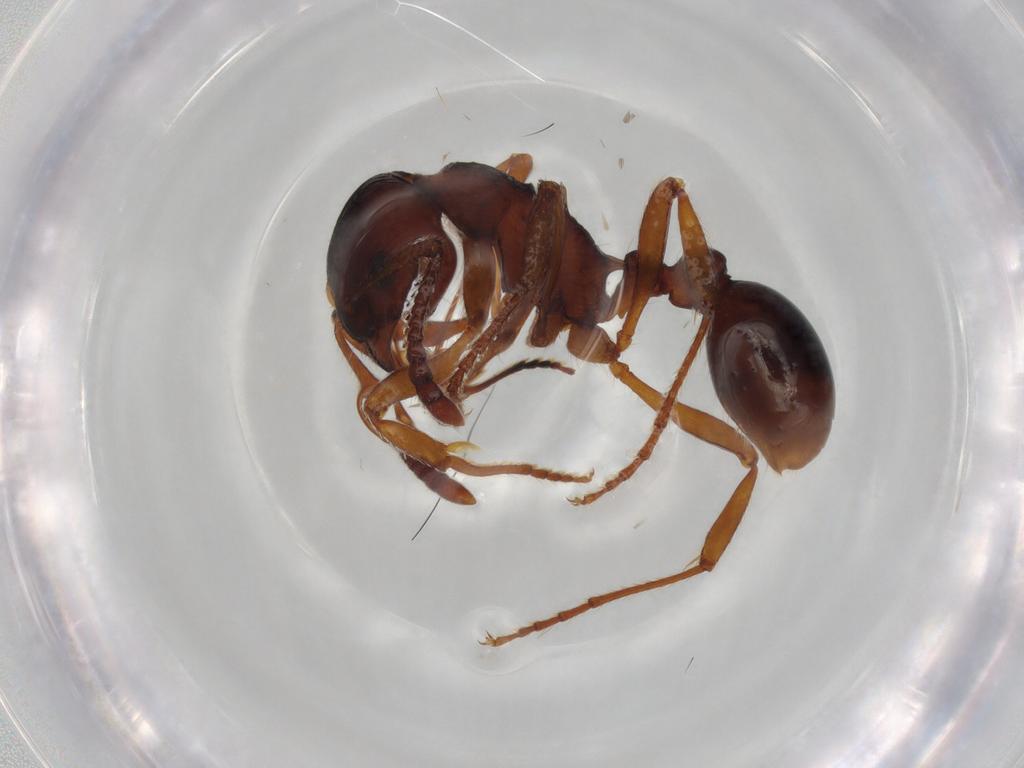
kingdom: Animalia
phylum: Arthropoda
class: Insecta
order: Hymenoptera
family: Formicidae
